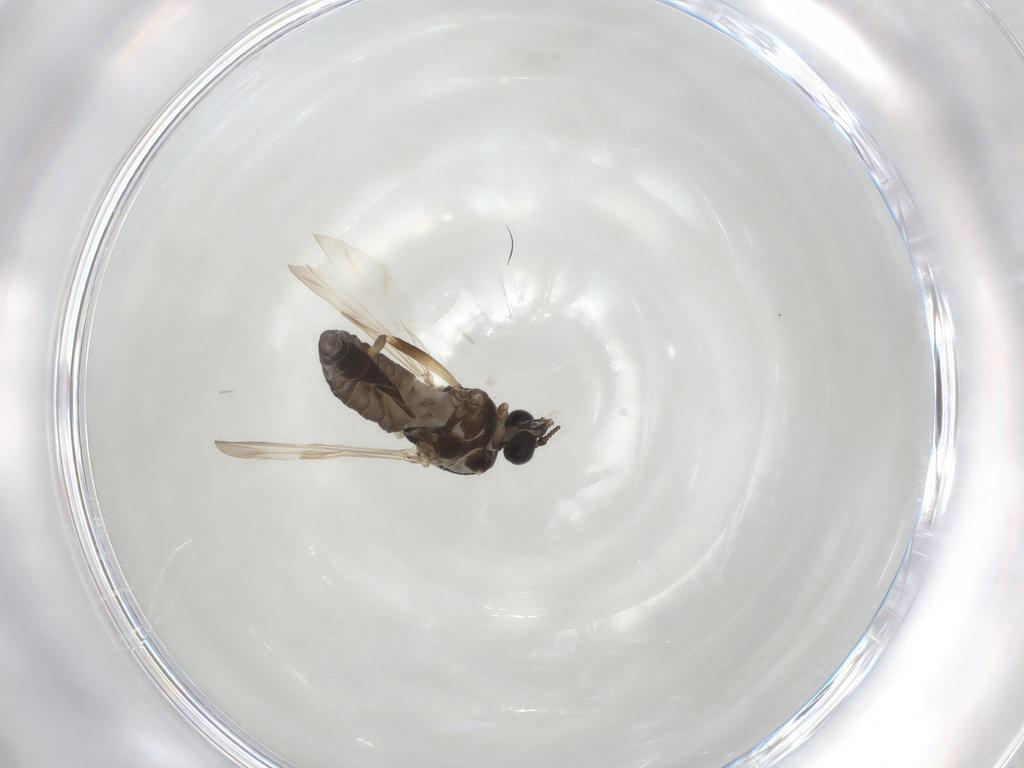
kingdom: Animalia
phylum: Arthropoda
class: Insecta
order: Diptera
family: Ceratopogonidae
